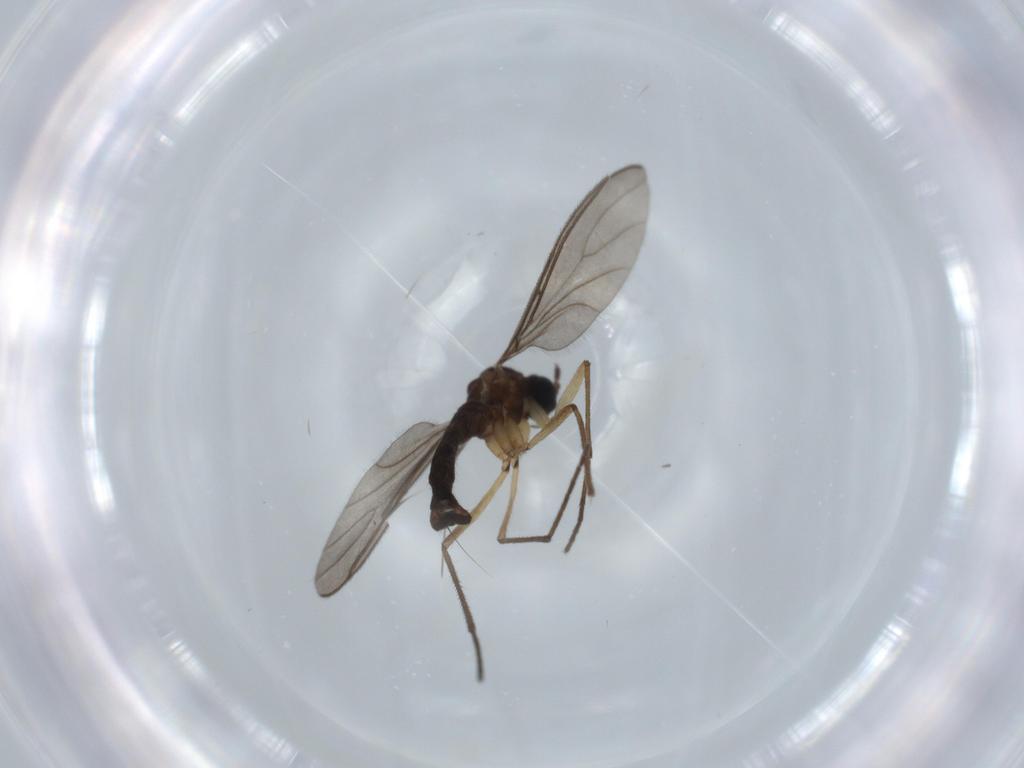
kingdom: Animalia
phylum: Arthropoda
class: Insecta
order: Diptera
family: Sciaridae
